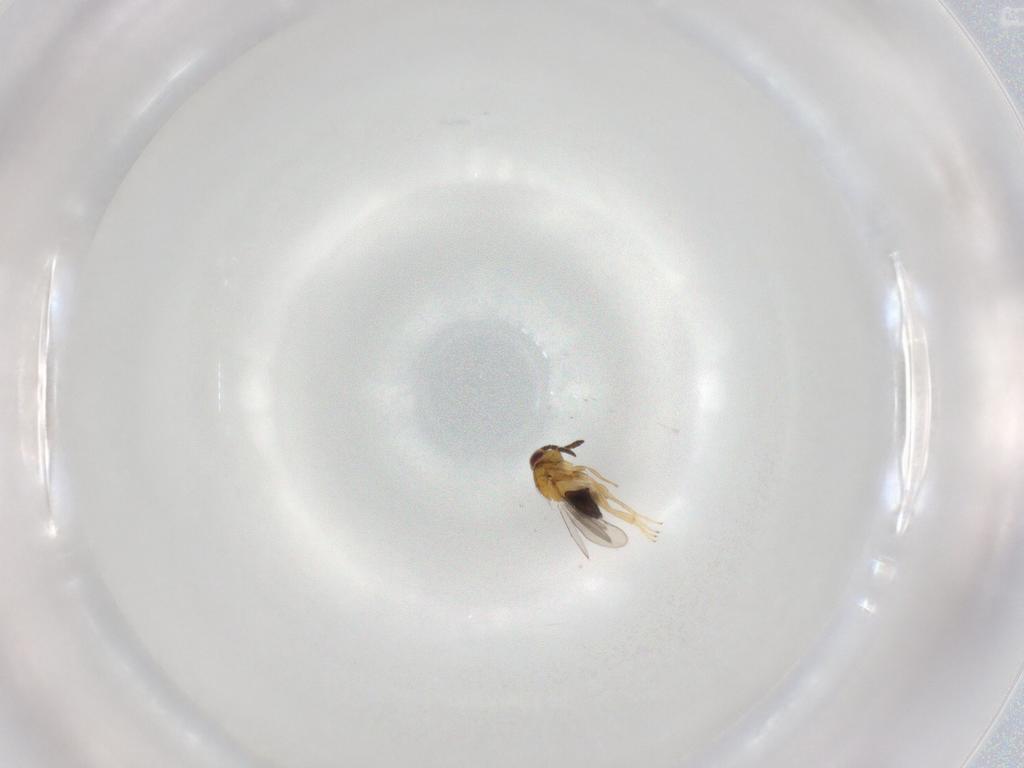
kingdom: Animalia
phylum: Arthropoda
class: Insecta
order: Hymenoptera
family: Aphelinidae
